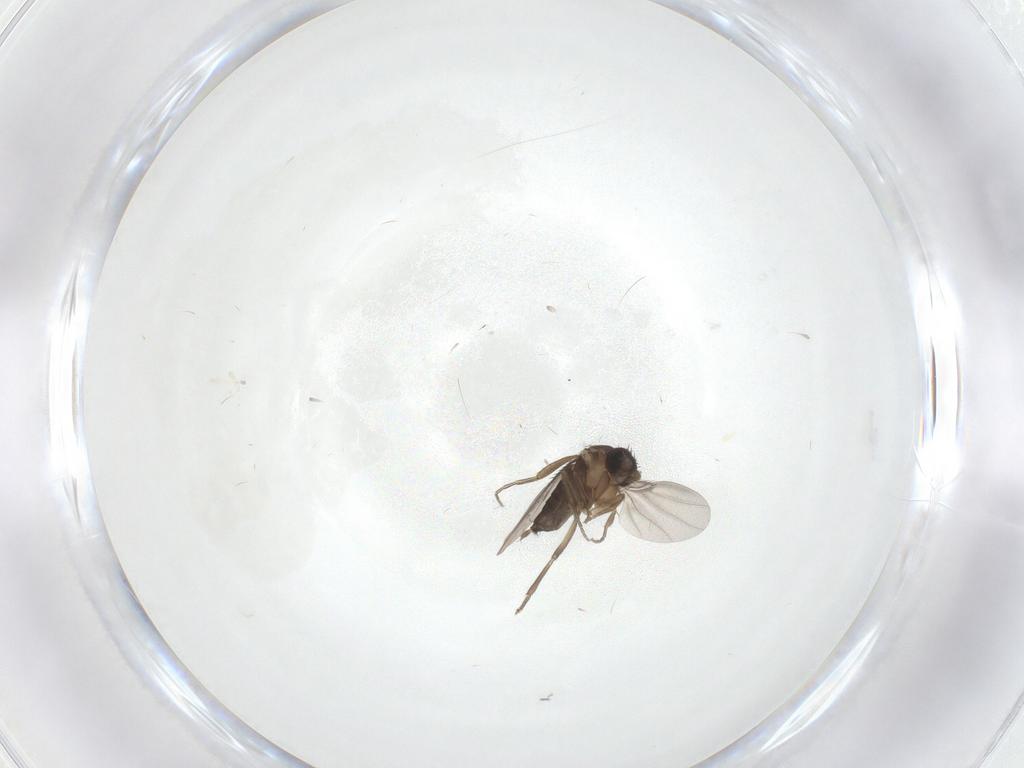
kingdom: Animalia
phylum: Arthropoda
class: Insecta
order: Diptera
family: Phoridae
